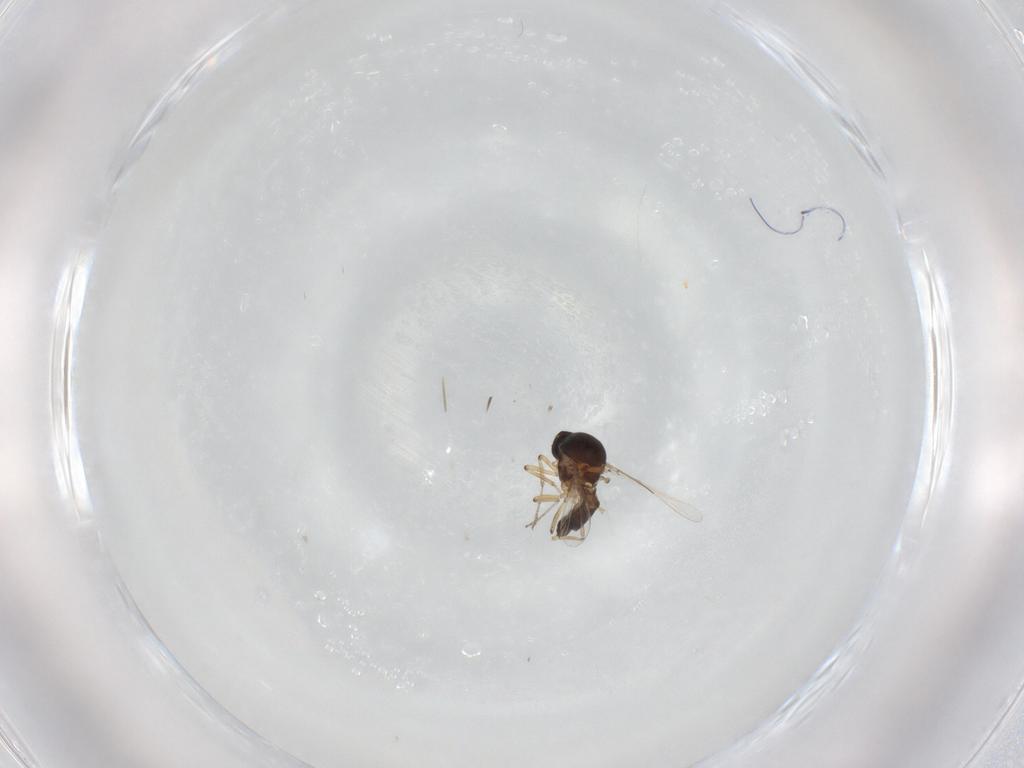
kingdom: Animalia
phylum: Arthropoda
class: Insecta
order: Diptera
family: Ceratopogonidae
